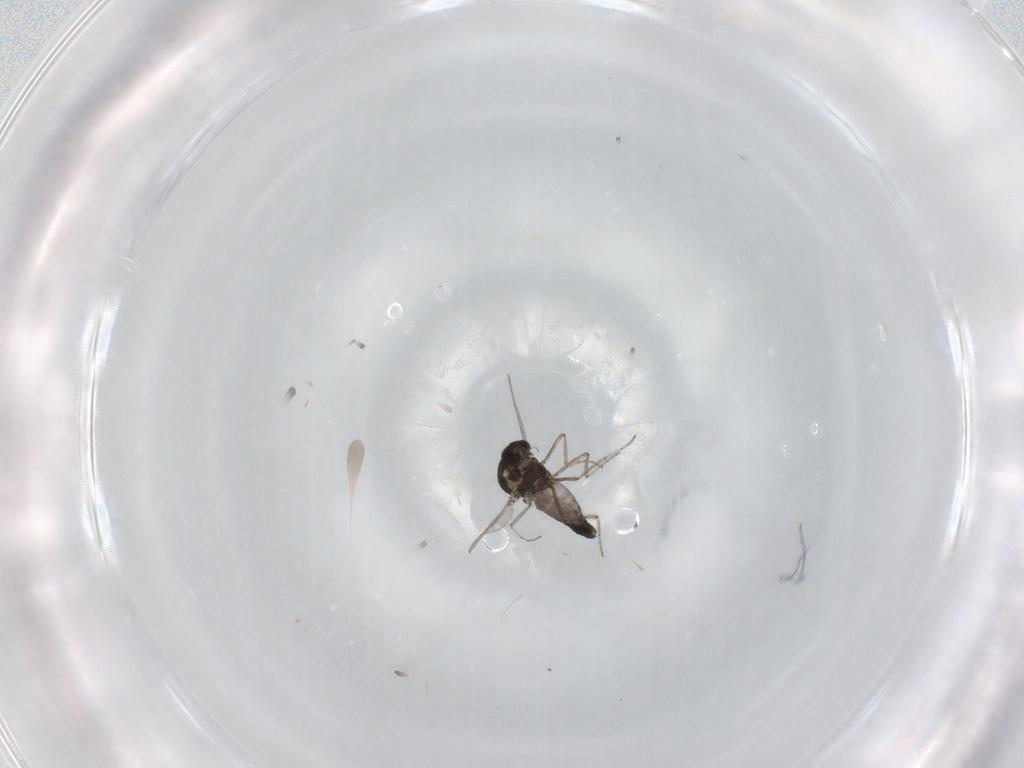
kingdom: Animalia
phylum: Arthropoda
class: Insecta
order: Diptera
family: Ceratopogonidae
